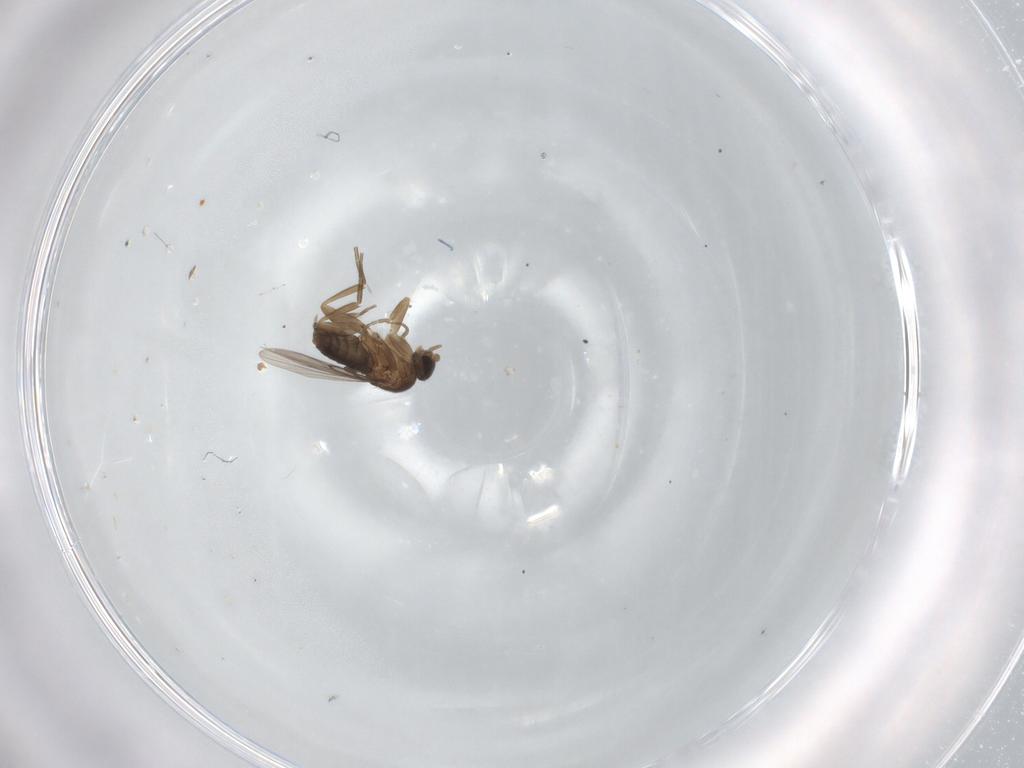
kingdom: Animalia
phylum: Arthropoda
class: Insecta
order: Diptera
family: Phoridae
